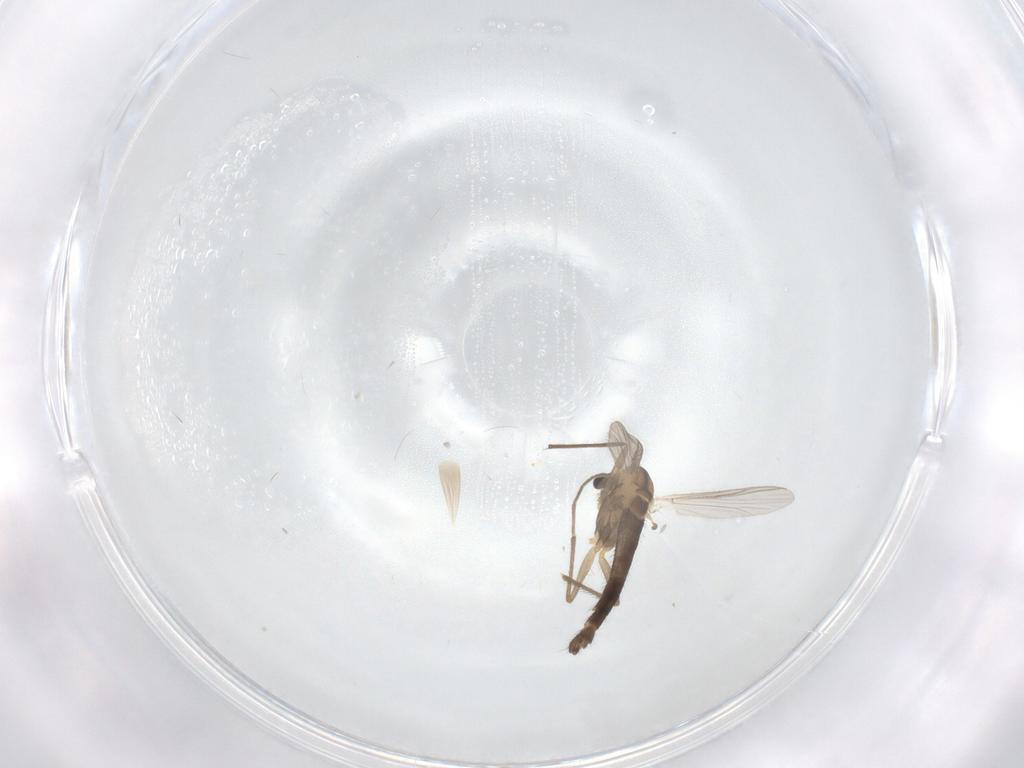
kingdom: Animalia
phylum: Arthropoda
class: Insecta
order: Diptera
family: Chironomidae
